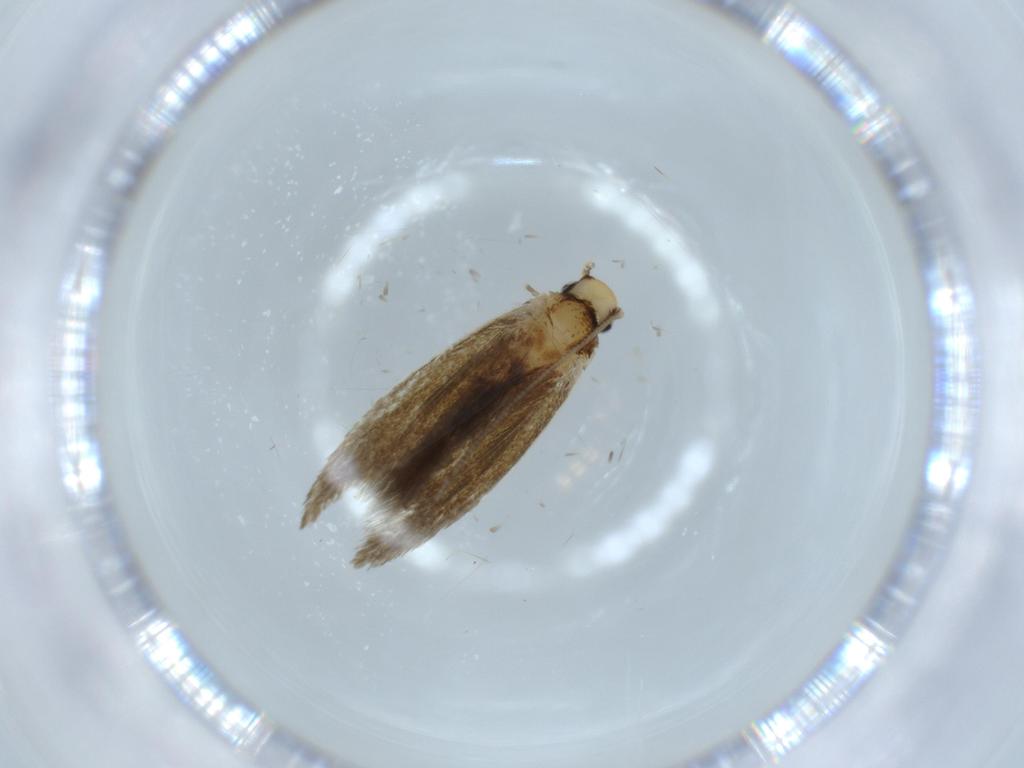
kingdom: Animalia
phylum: Arthropoda
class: Insecta
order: Lepidoptera
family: Tineidae
